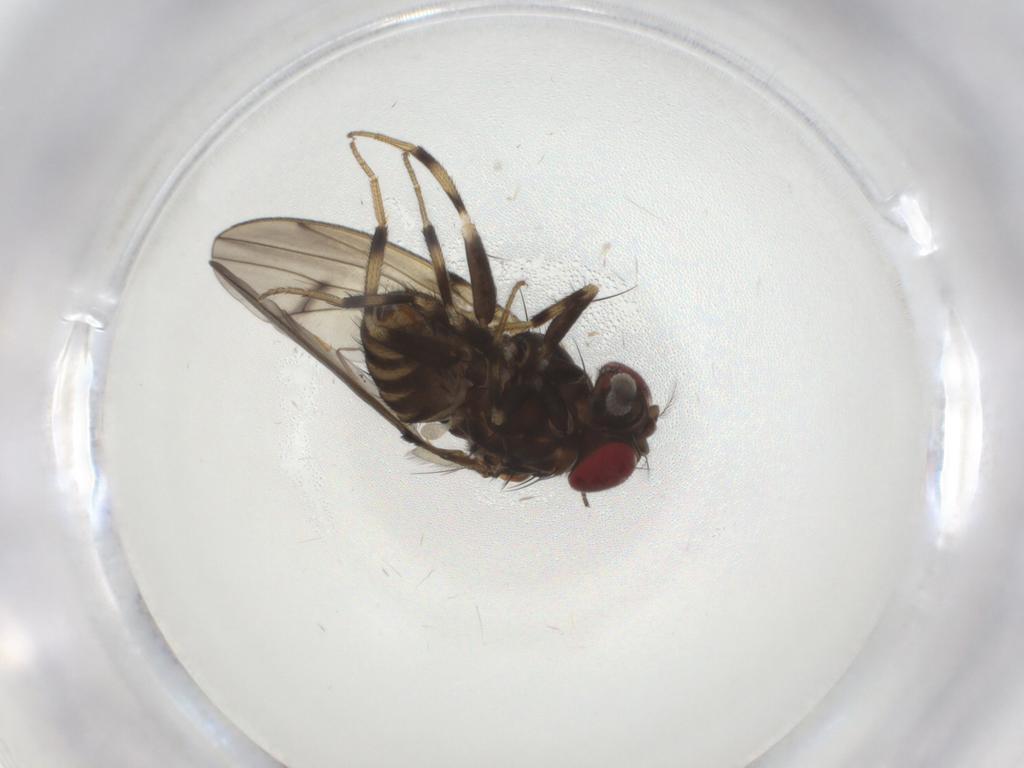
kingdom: Animalia
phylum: Arthropoda
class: Insecta
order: Diptera
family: Drosophilidae
